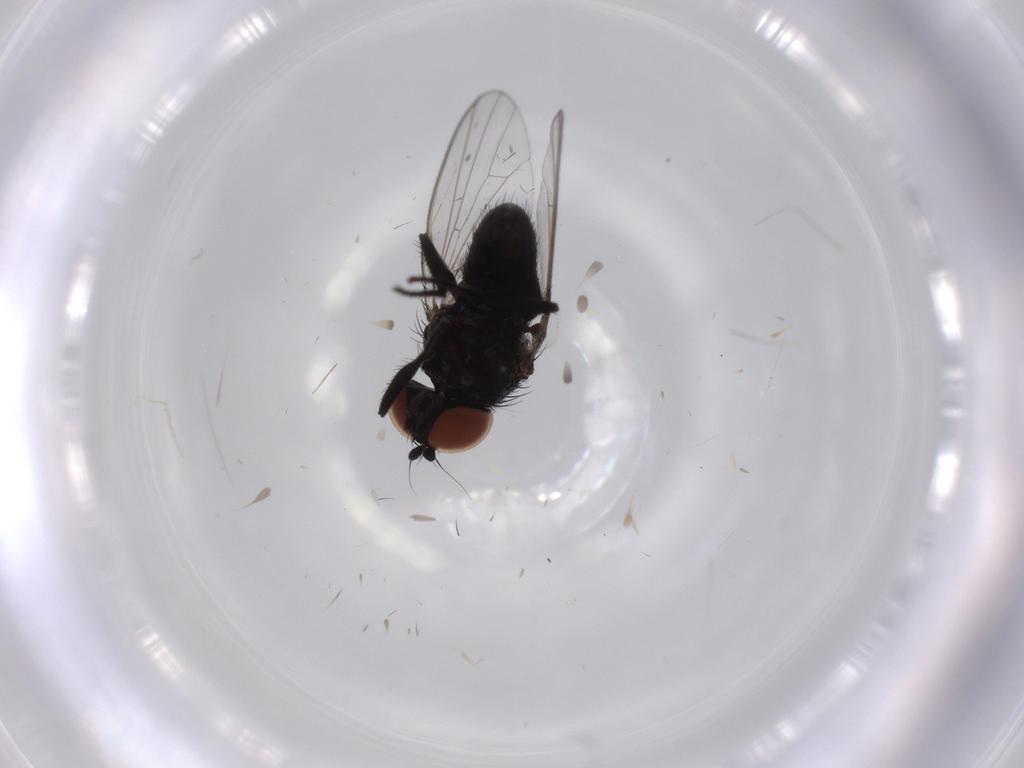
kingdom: Animalia
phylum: Arthropoda
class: Insecta
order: Diptera
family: Milichiidae
